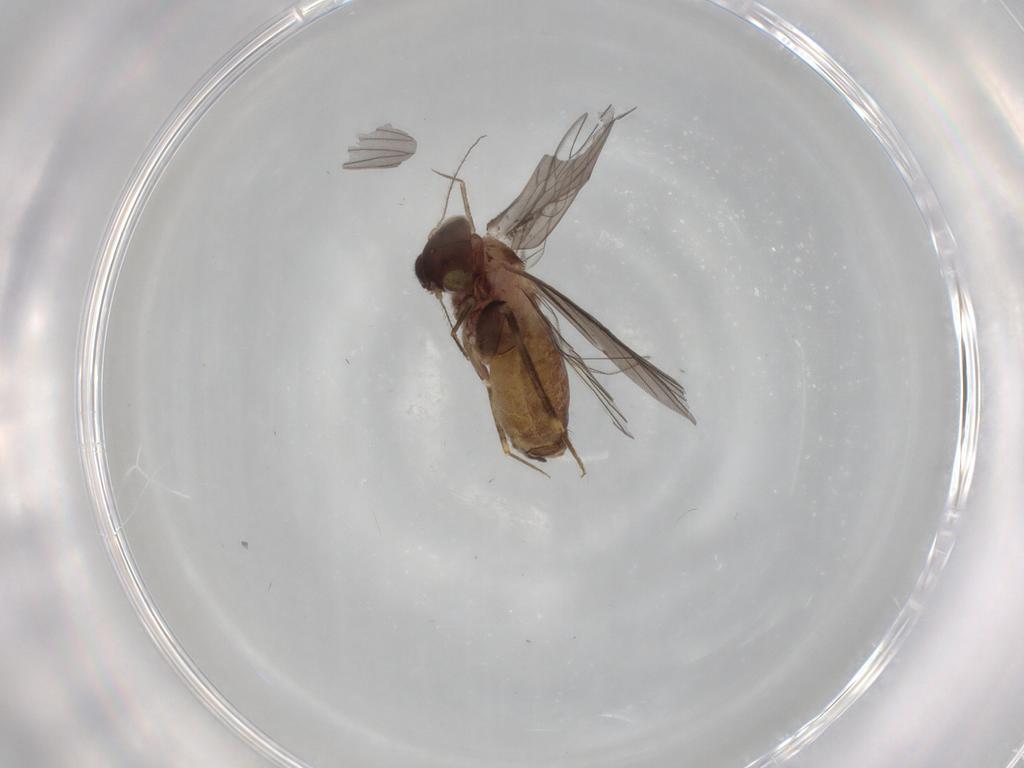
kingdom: Animalia
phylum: Arthropoda
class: Insecta
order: Psocodea
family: Lepidopsocidae
